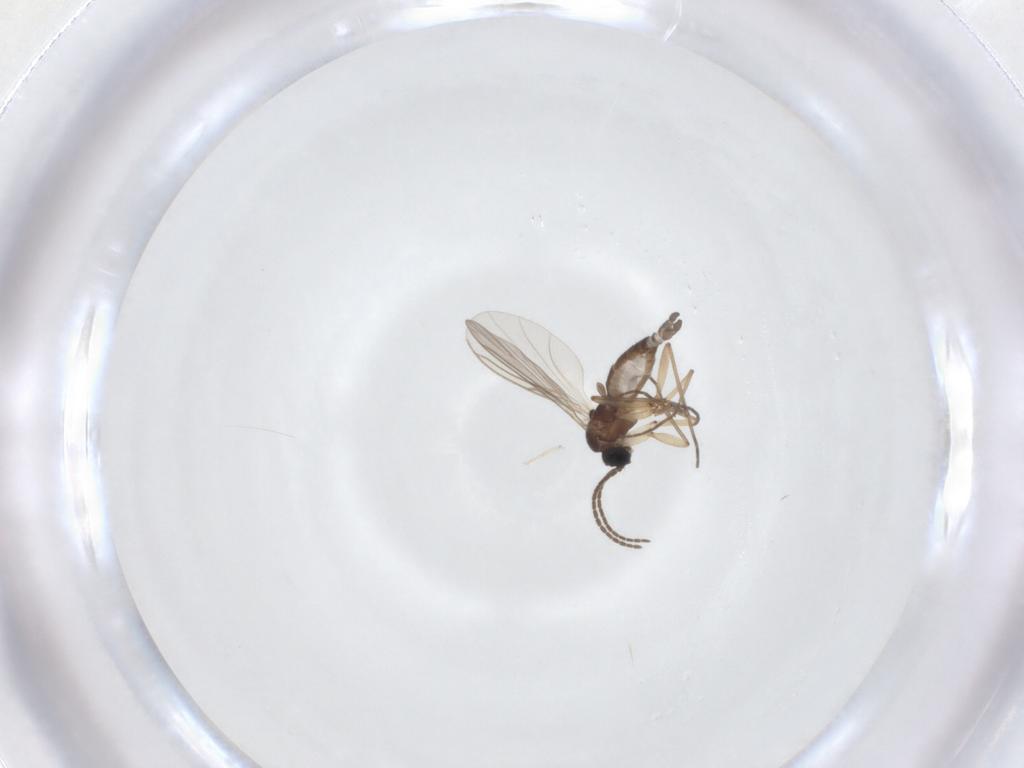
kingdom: Animalia
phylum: Arthropoda
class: Insecta
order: Diptera
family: Sciaridae
